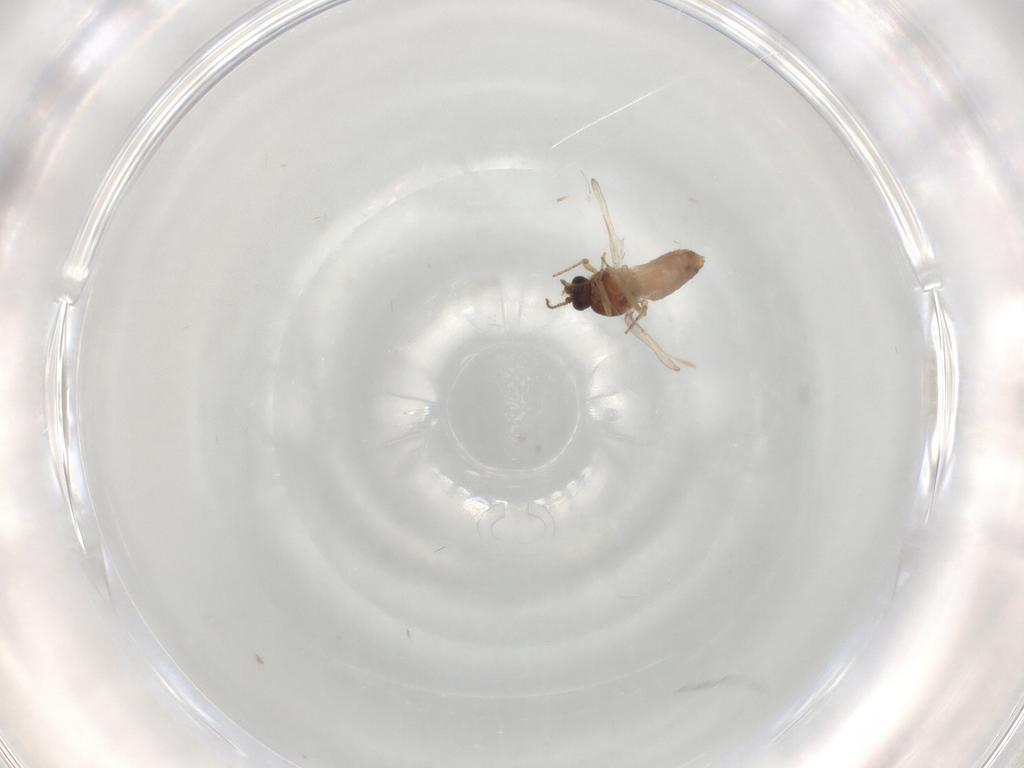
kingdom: Animalia
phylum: Arthropoda
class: Insecta
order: Diptera
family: Ceratopogonidae
